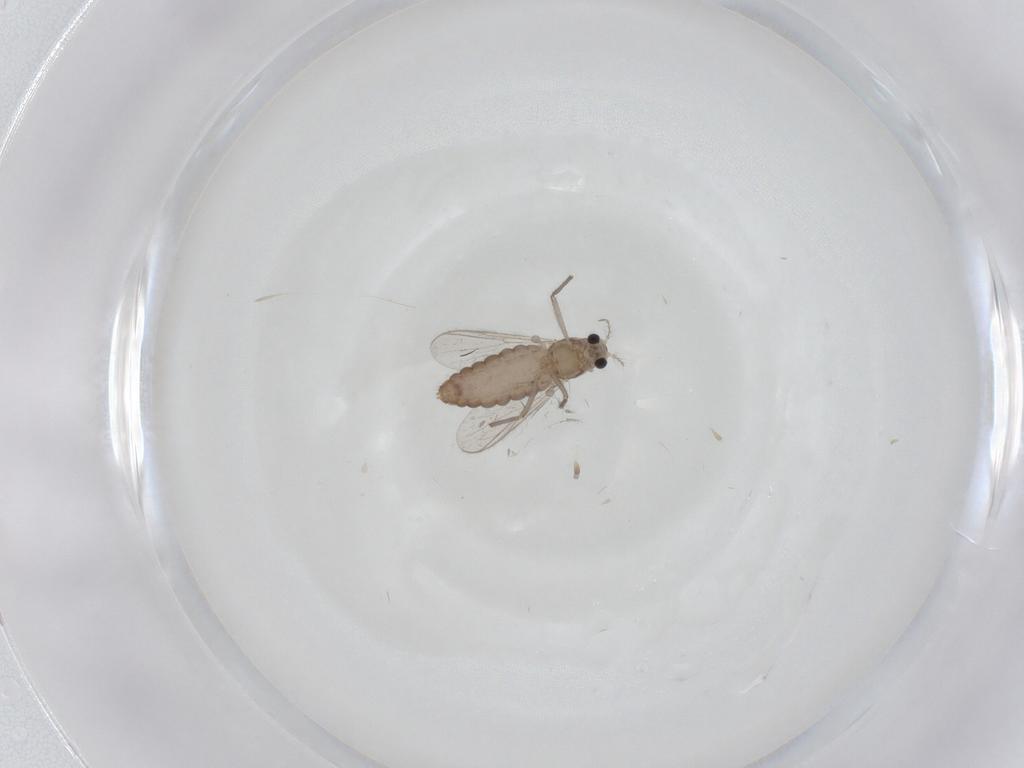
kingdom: Animalia
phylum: Arthropoda
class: Insecta
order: Diptera
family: Chironomidae
